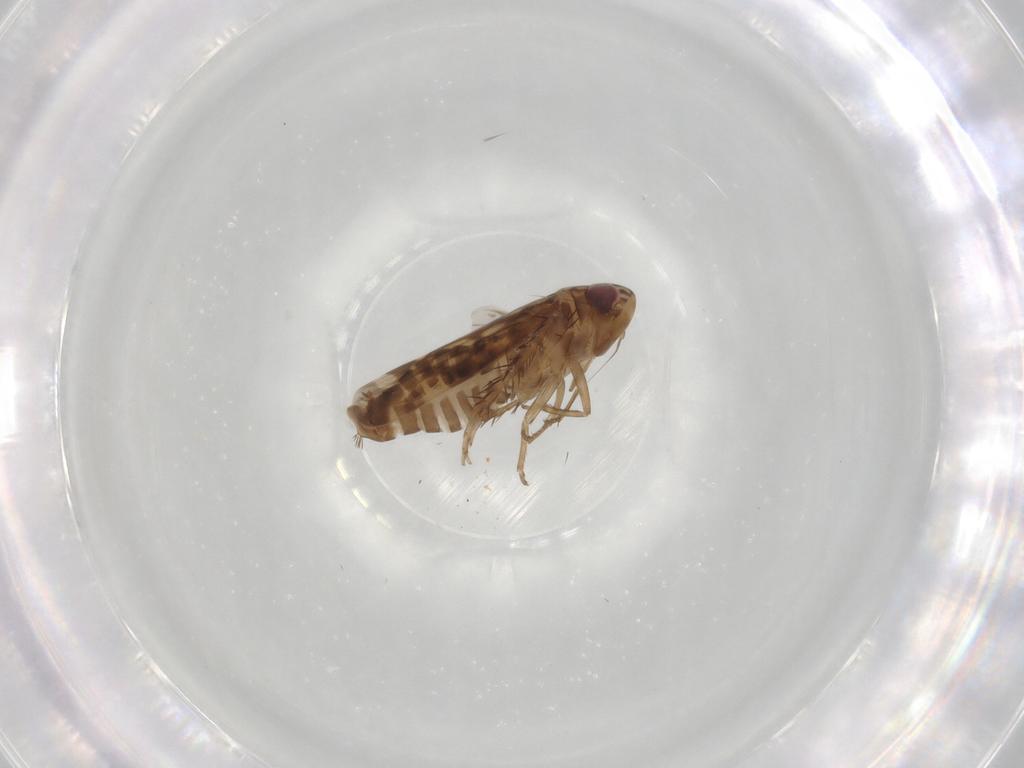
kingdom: Animalia
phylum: Arthropoda
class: Insecta
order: Hemiptera
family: Cicadellidae
